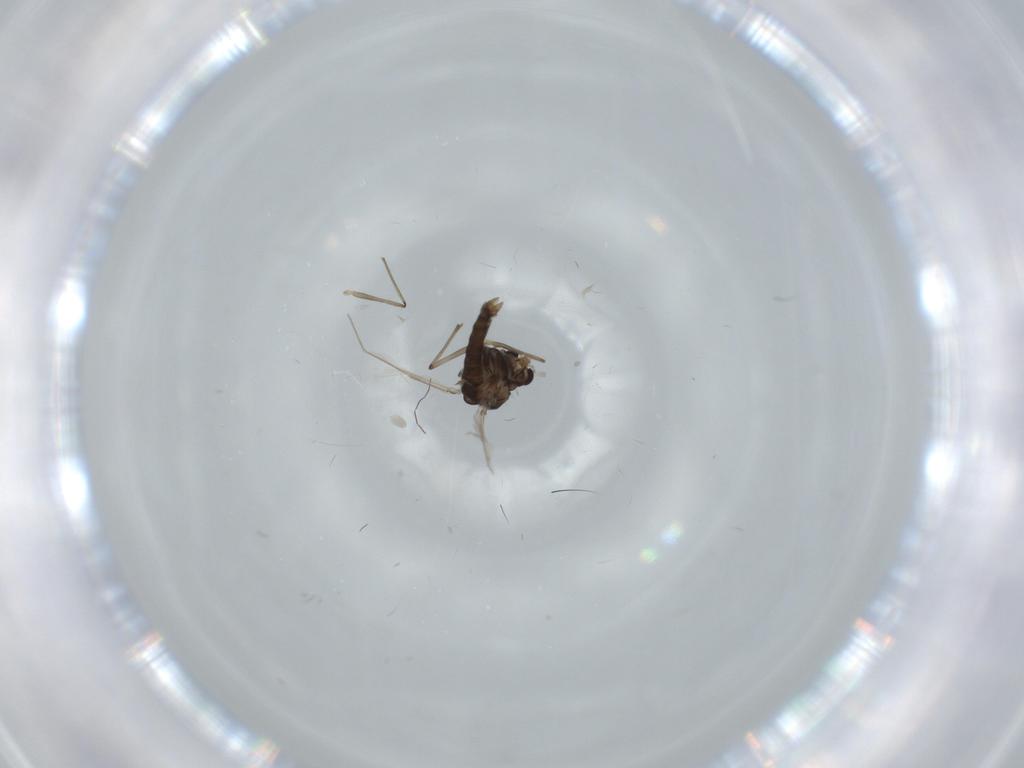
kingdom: Animalia
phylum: Arthropoda
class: Insecta
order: Diptera
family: Chironomidae
